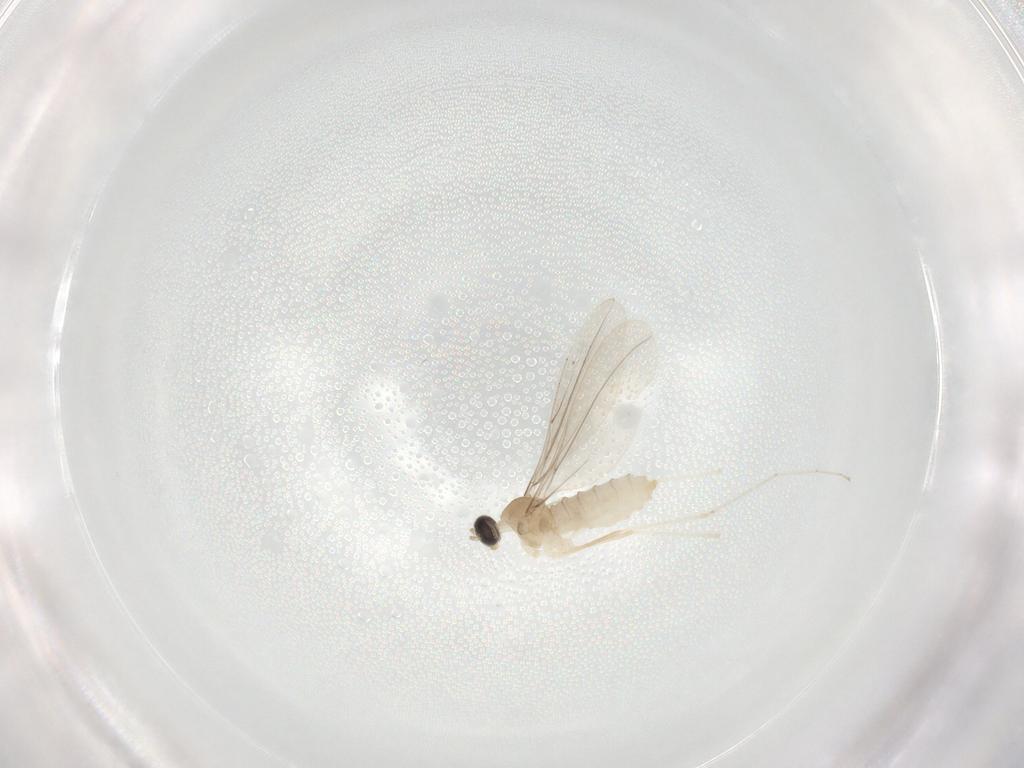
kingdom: Animalia
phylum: Arthropoda
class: Insecta
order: Diptera
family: Cecidomyiidae
